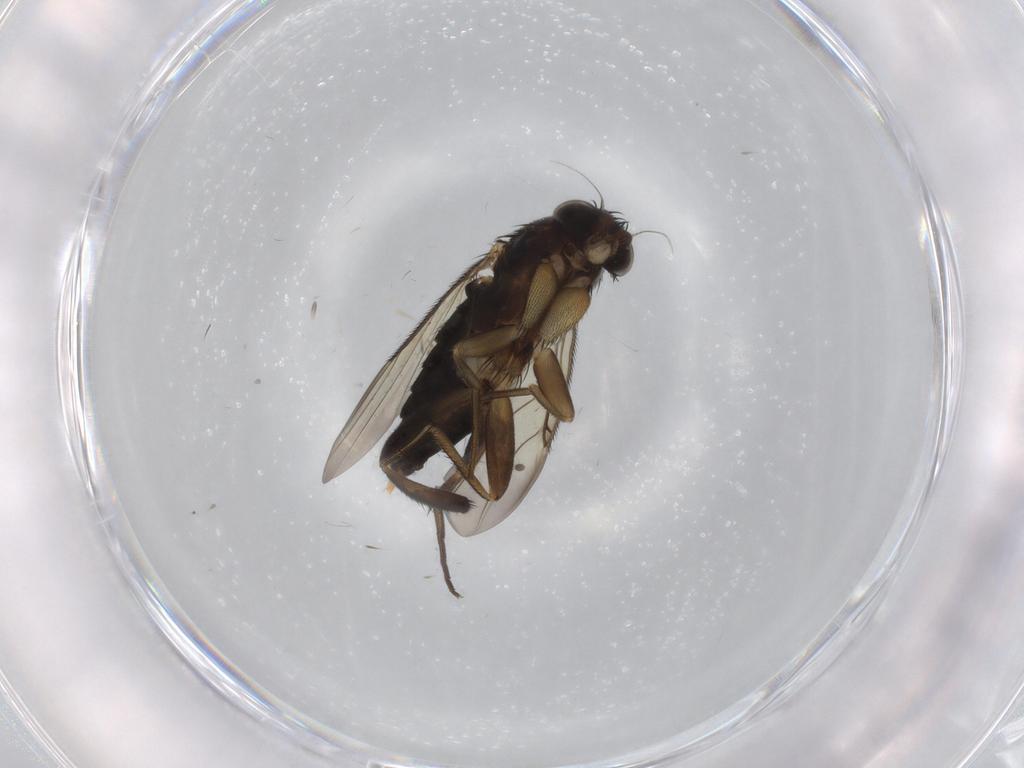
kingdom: Animalia
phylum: Arthropoda
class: Insecta
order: Diptera
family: Phoridae
